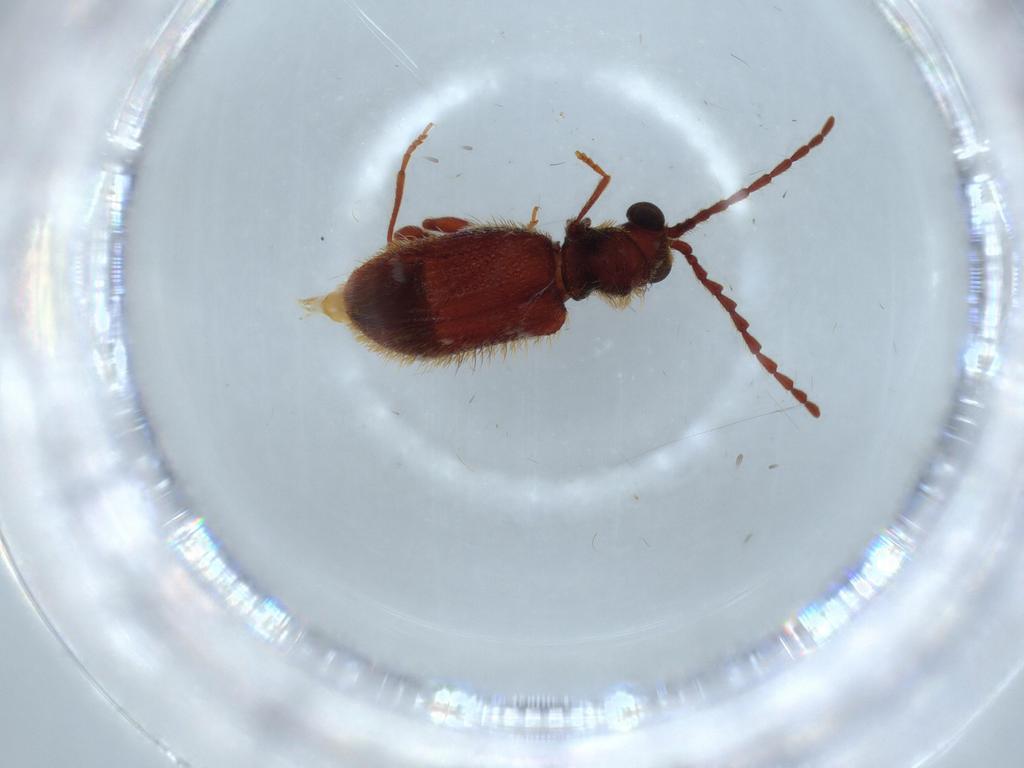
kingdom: Animalia
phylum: Arthropoda
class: Insecta
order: Coleoptera
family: Ptinidae
